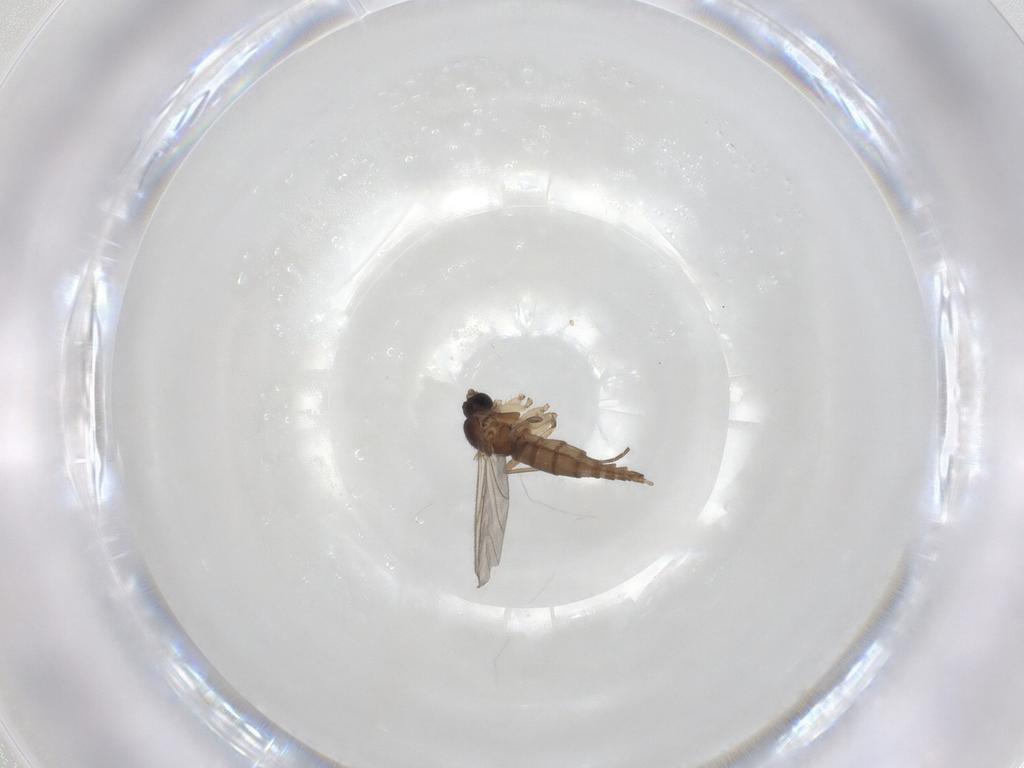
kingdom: Animalia
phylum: Arthropoda
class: Insecta
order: Diptera
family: Sciaridae
